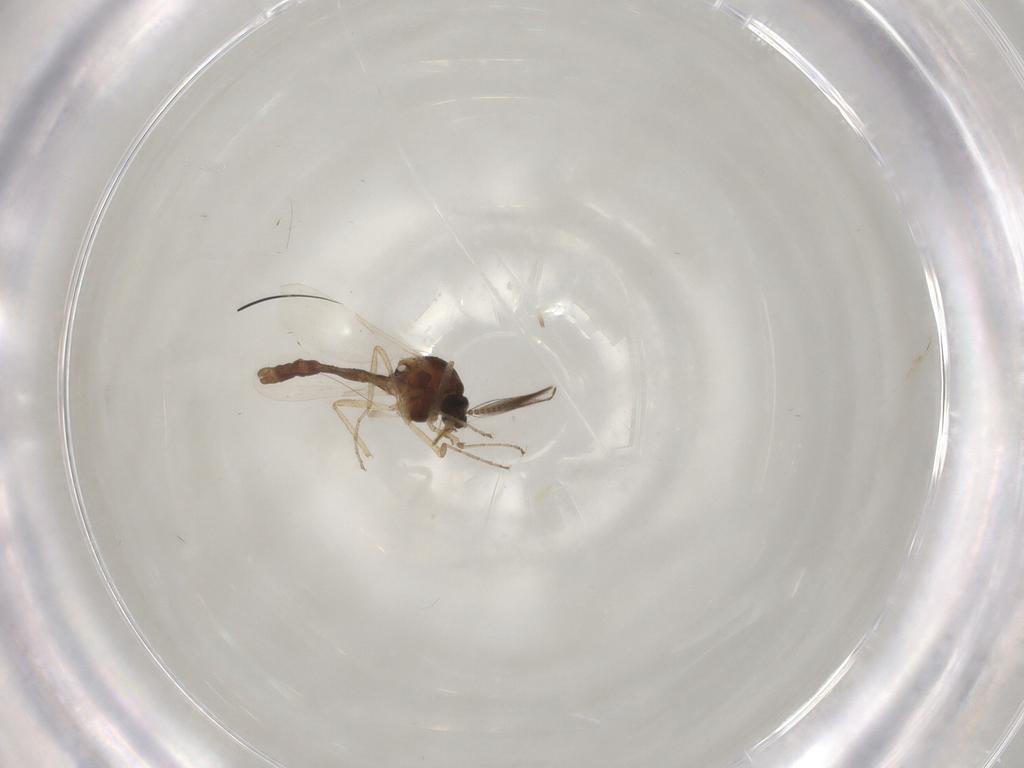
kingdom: Animalia
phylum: Arthropoda
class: Insecta
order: Diptera
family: Ceratopogonidae
